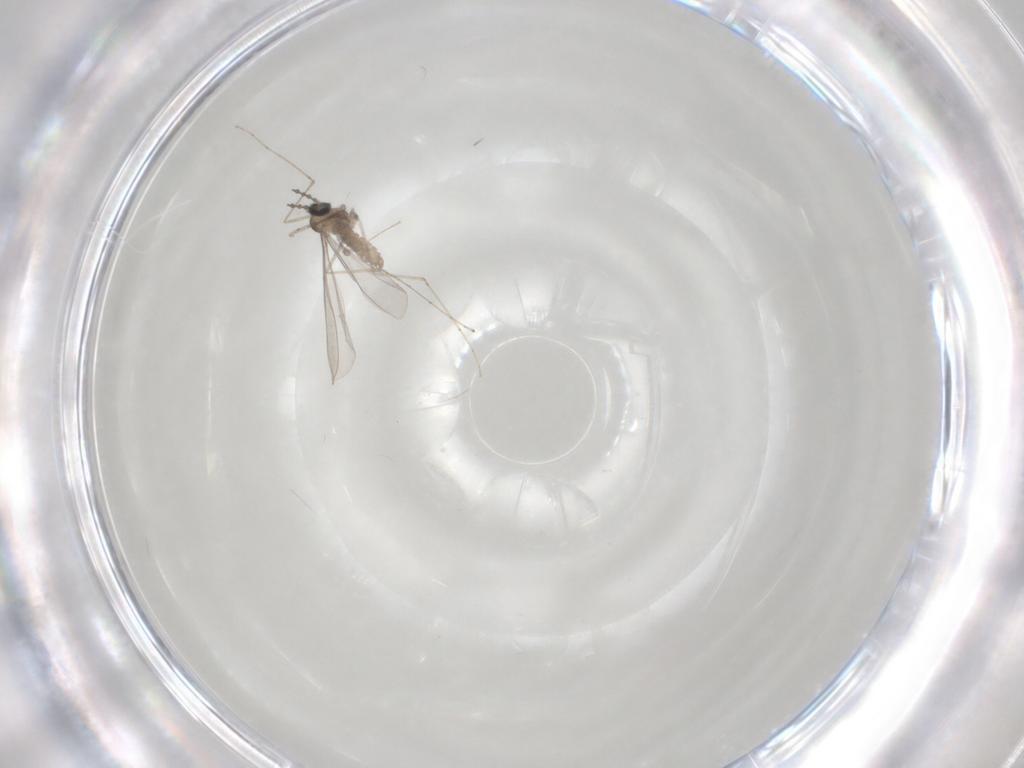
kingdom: Animalia
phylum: Arthropoda
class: Insecta
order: Diptera
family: Cecidomyiidae
